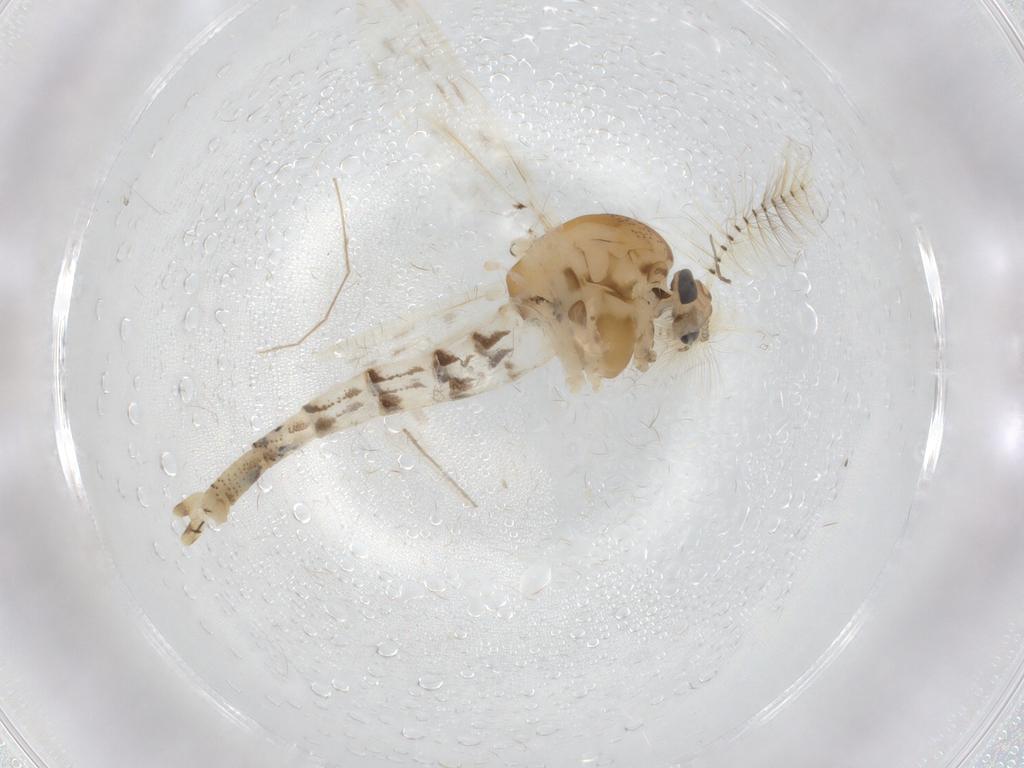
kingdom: Animalia
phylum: Arthropoda
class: Insecta
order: Diptera
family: Chaoboridae
